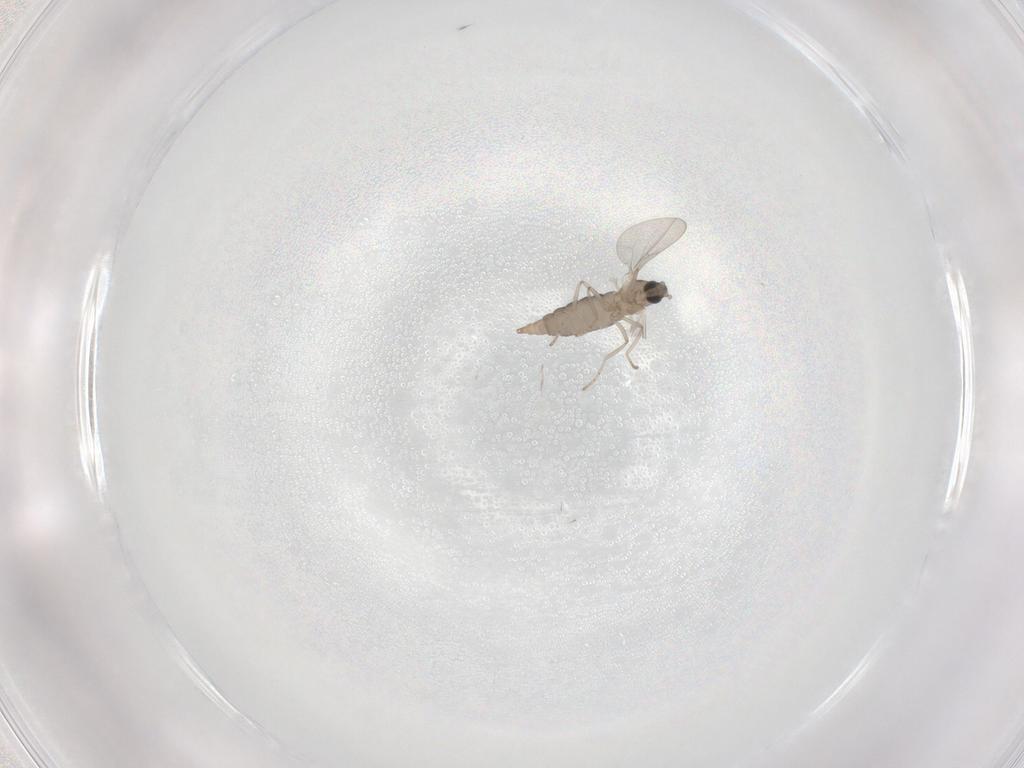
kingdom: Animalia
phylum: Arthropoda
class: Insecta
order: Diptera
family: Cecidomyiidae
